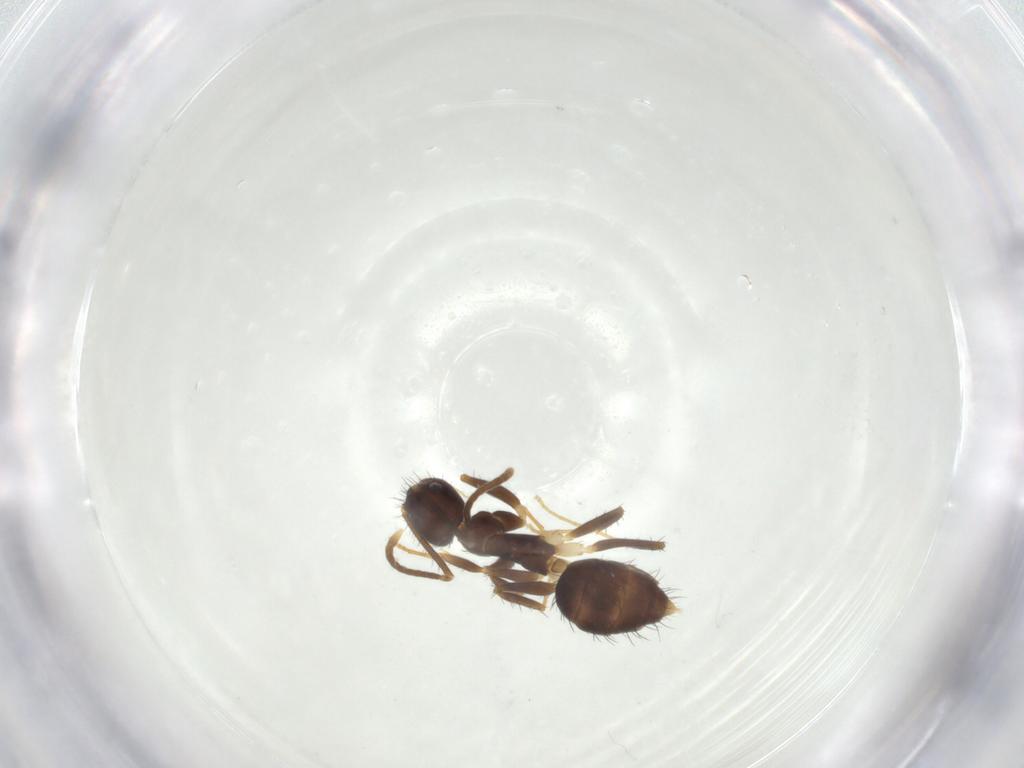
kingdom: Animalia
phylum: Arthropoda
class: Insecta
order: Hymenoptera
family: Formicidae
